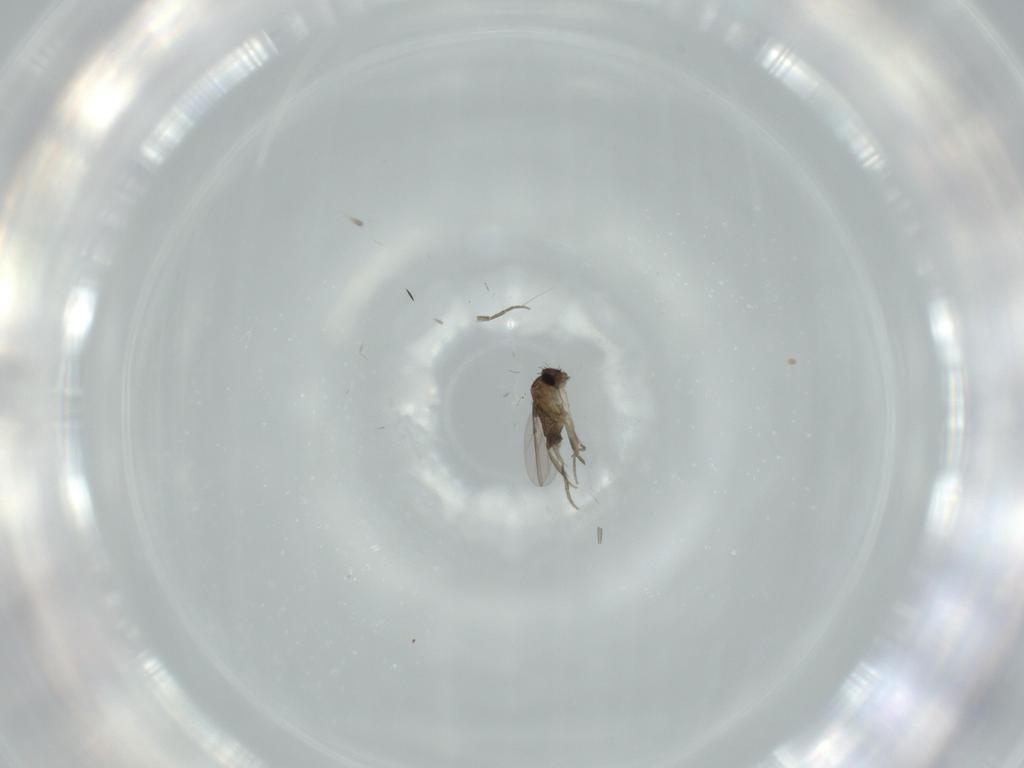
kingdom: Animalia
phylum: Arthropoda
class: Insecta
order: Diptera
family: Phoridae
